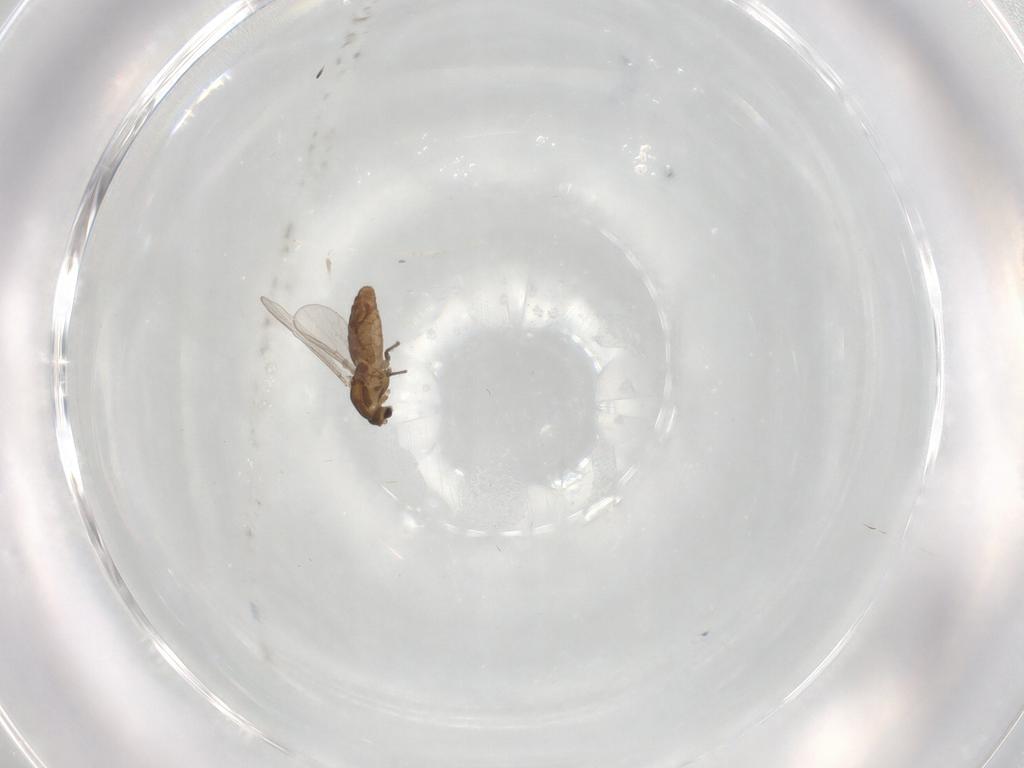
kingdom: Animalia
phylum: Arthropoda
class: Insecta
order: Diptera
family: Chironomidae
